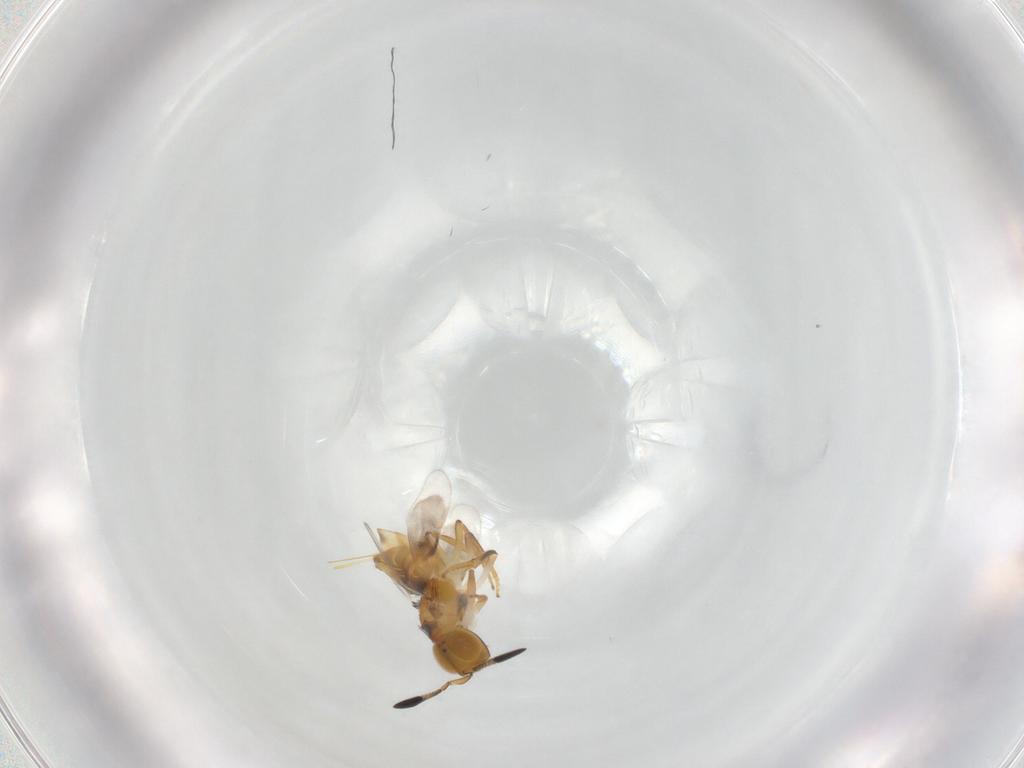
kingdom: Animalia
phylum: Arthropoda
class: Insecta
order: Hymenoptera
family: Encyrtidae
